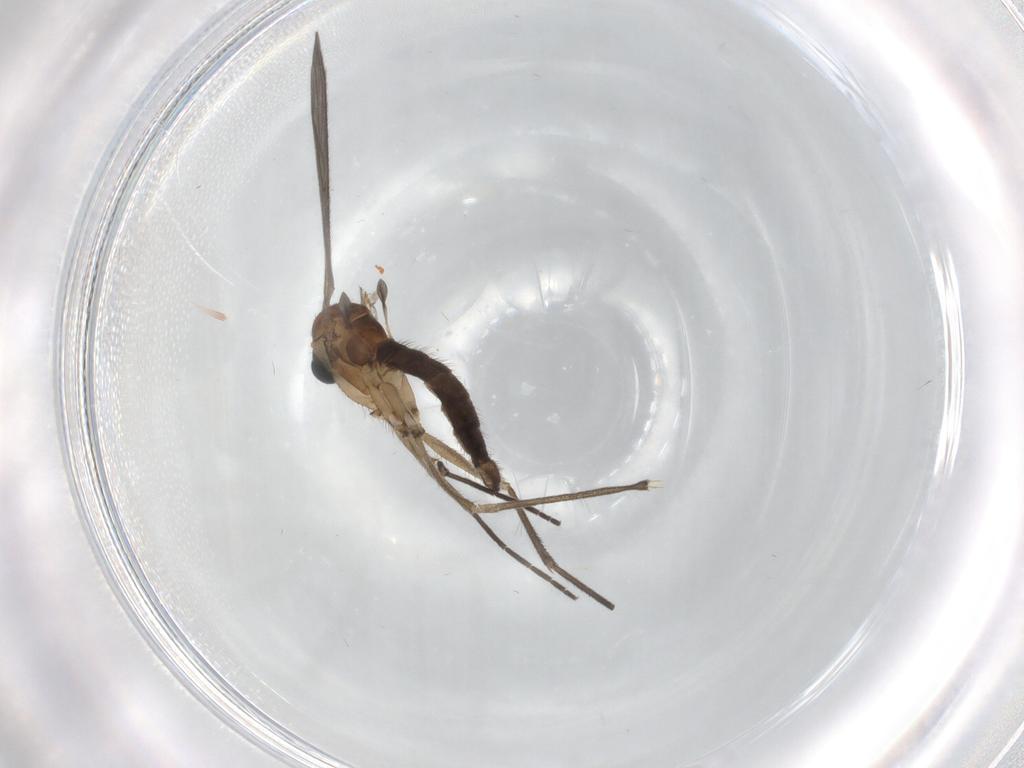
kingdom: Animalia
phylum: Arthropoda
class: Insecta
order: Diptera
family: Sciaridae
